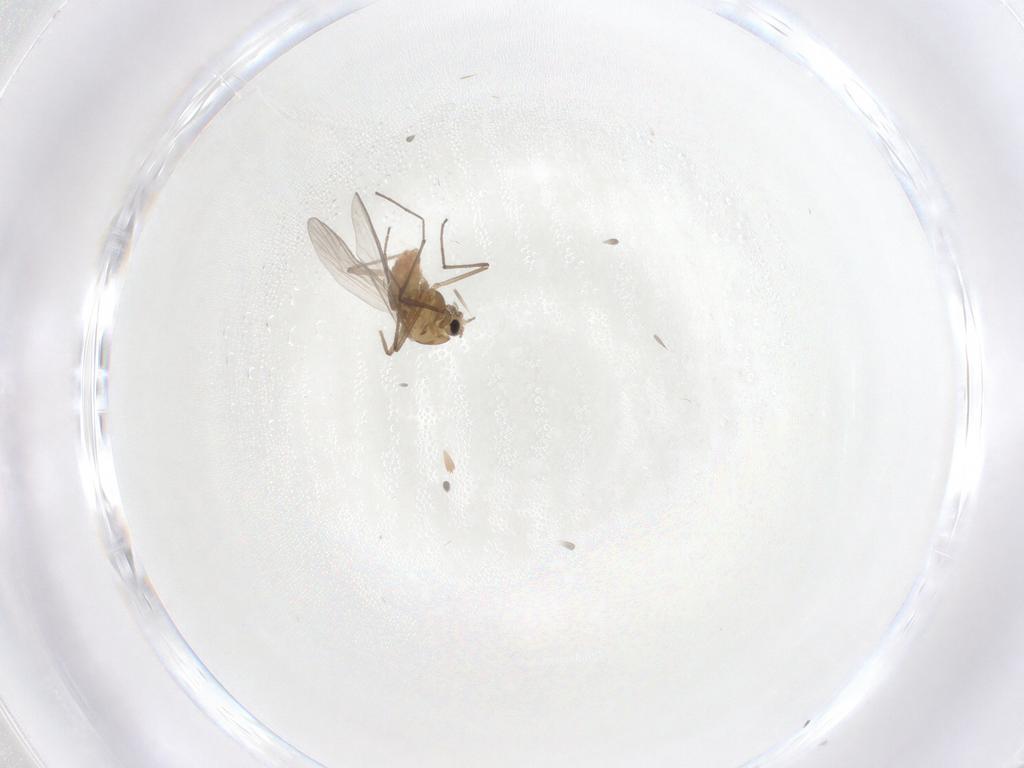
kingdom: Animalia
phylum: Arthropoda
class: Insecta
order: Diptera
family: Chironomidae
